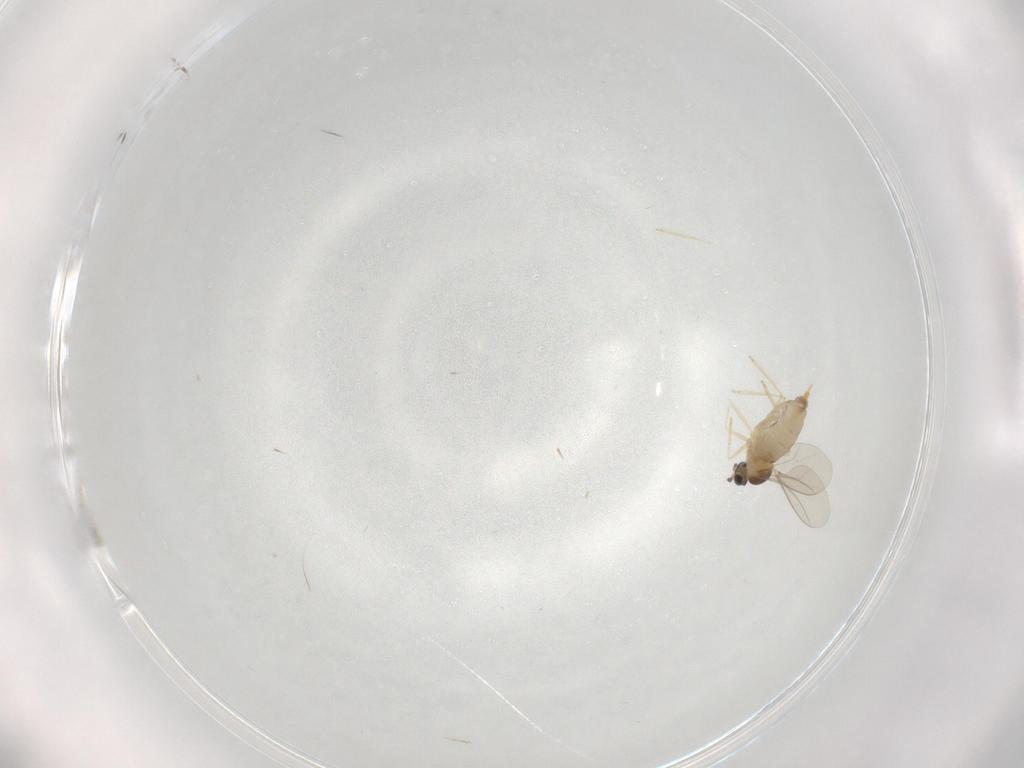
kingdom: Animalia
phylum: Arthropoda
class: Insecta
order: Diptera
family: Cecidomyiidae
